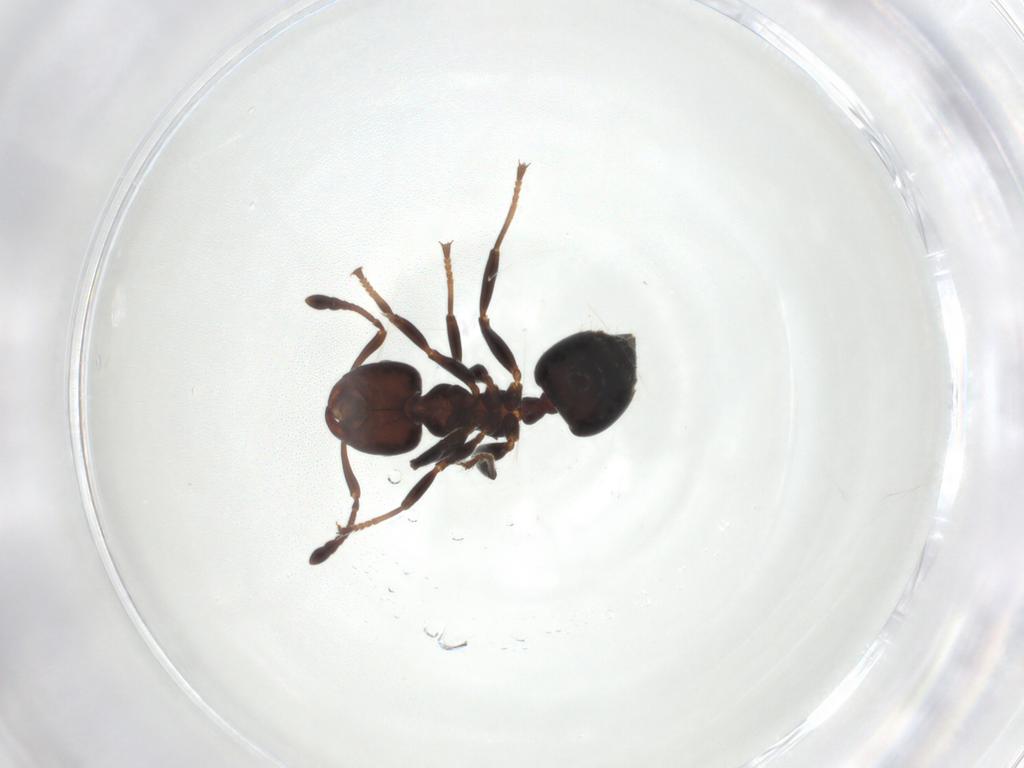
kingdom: Animalia
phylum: Arthropoda
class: Insecta
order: Hymenoptera
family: Formicidae
